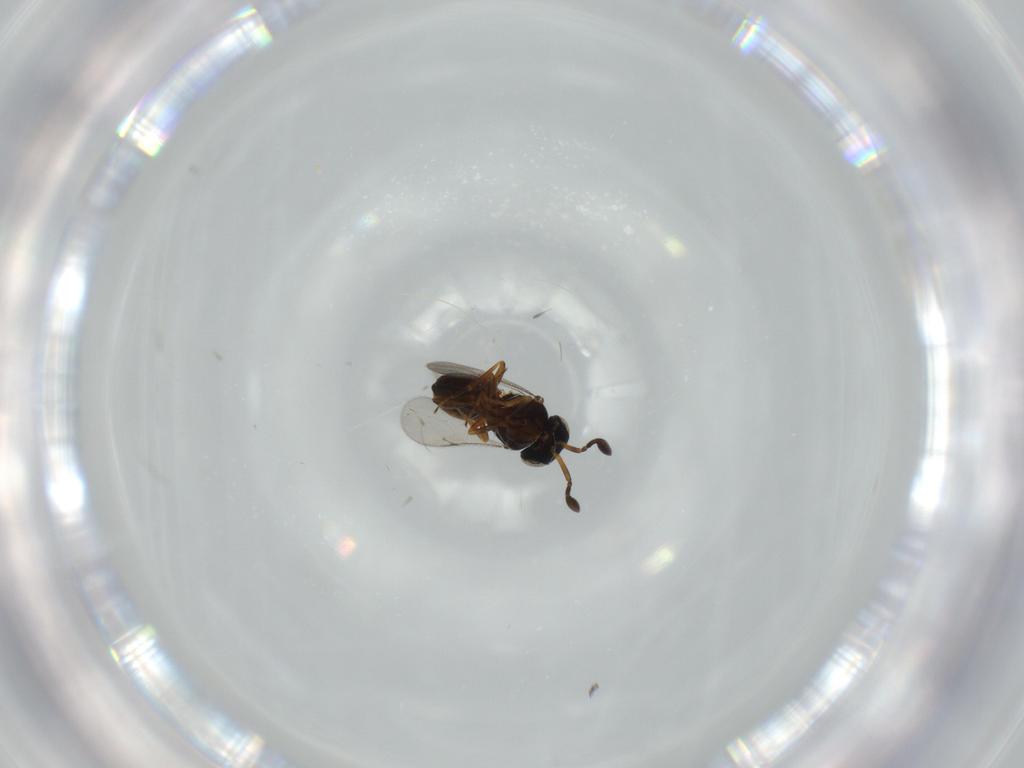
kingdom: Animalia
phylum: Arthropoda
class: Insecta
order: Hymenoptera
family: Scelionidae
